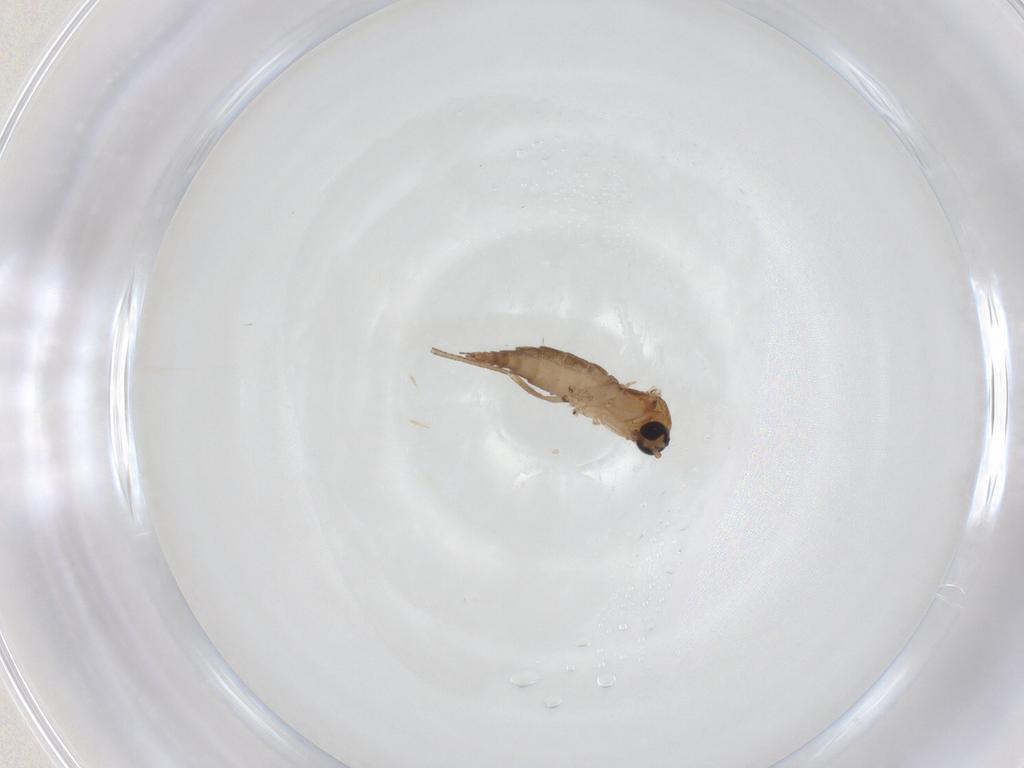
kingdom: Animalia
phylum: Arthropoda
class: Insecta
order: Diptera
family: Sciaridae
